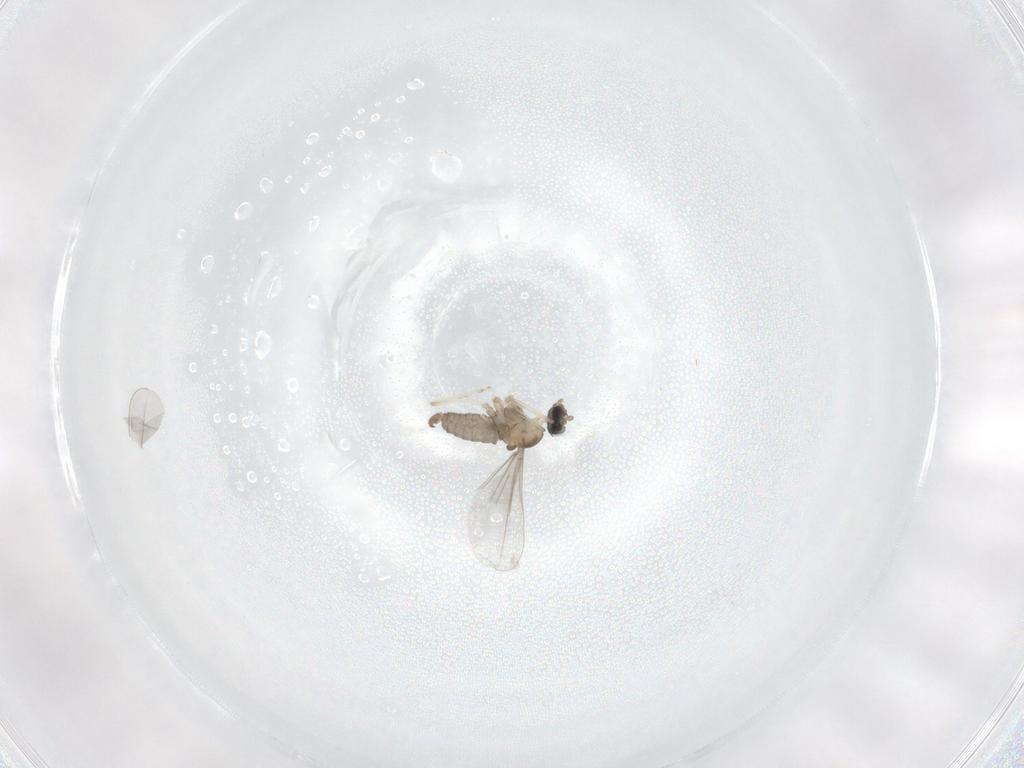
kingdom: Animalia
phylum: Arthropoda
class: Insecta
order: Diptera
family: Cecidomyiidae
